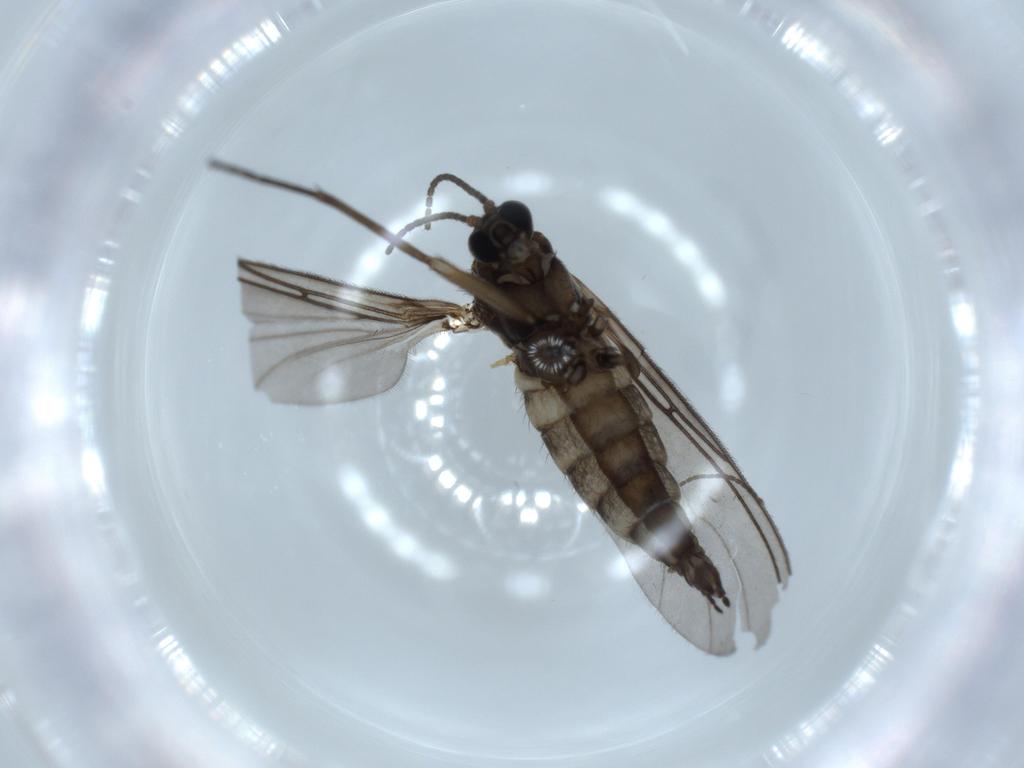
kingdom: Animalia
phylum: Arthropoda
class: Insecta
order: Diptera
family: Sciaridae
